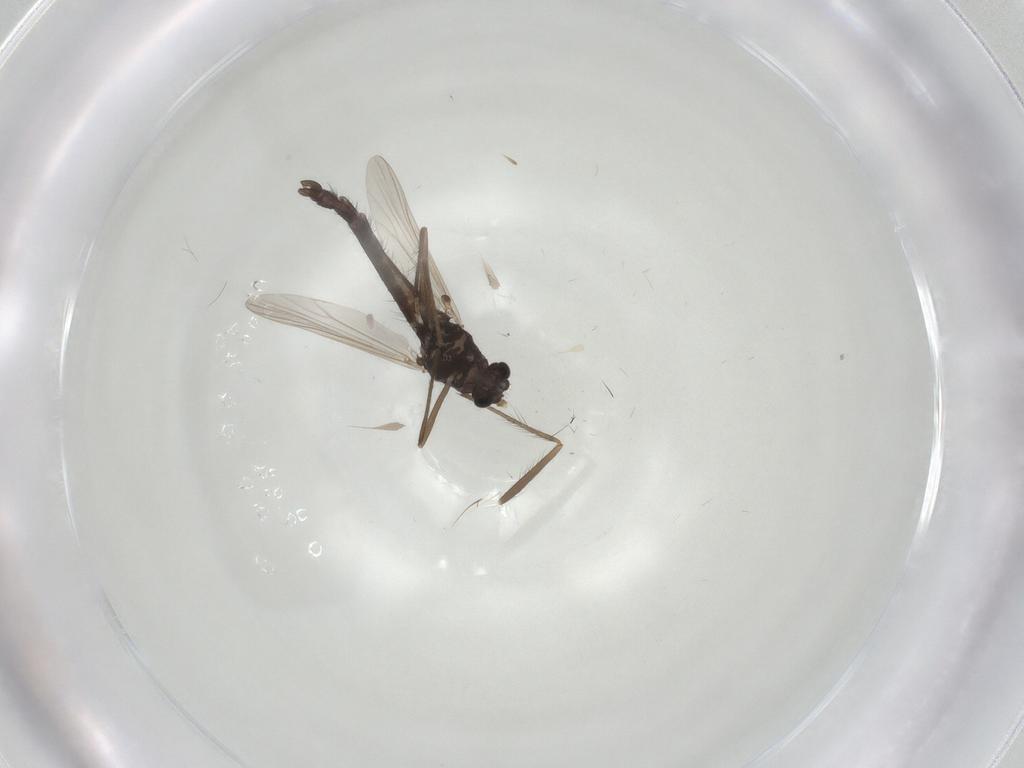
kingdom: Animalia
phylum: Arthropoda
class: Insecta
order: Diptera
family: Chironomidae
